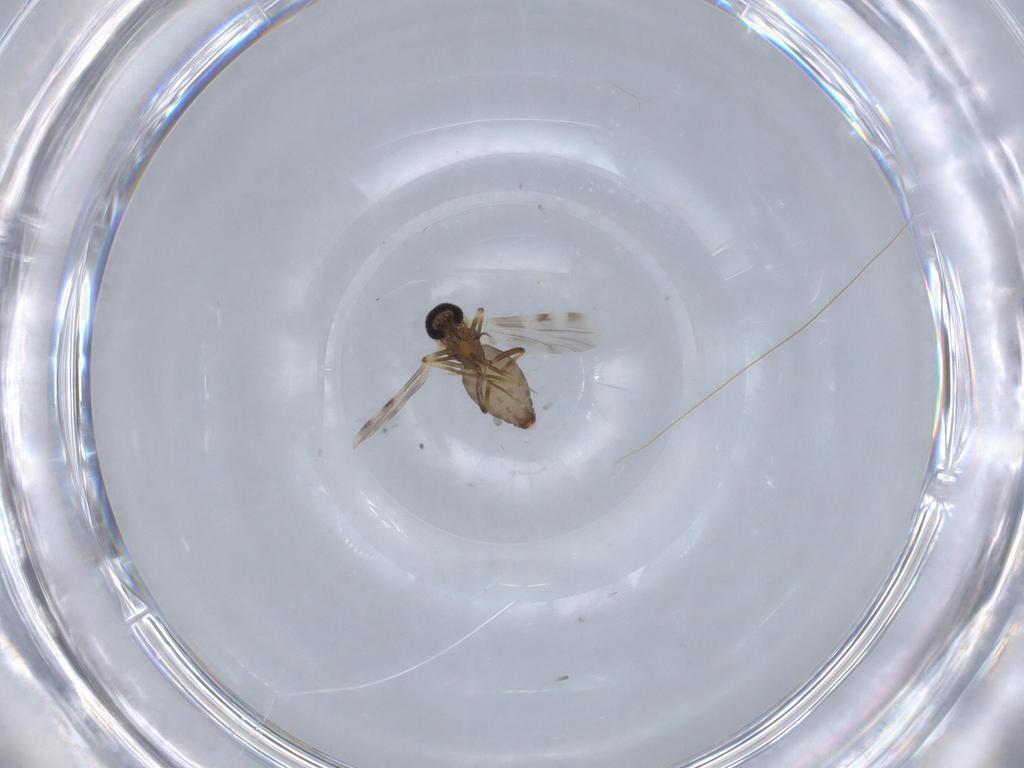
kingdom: Animalia
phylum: Arthropoda
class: Insecta
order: Diptera
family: Ceratopogonidae
